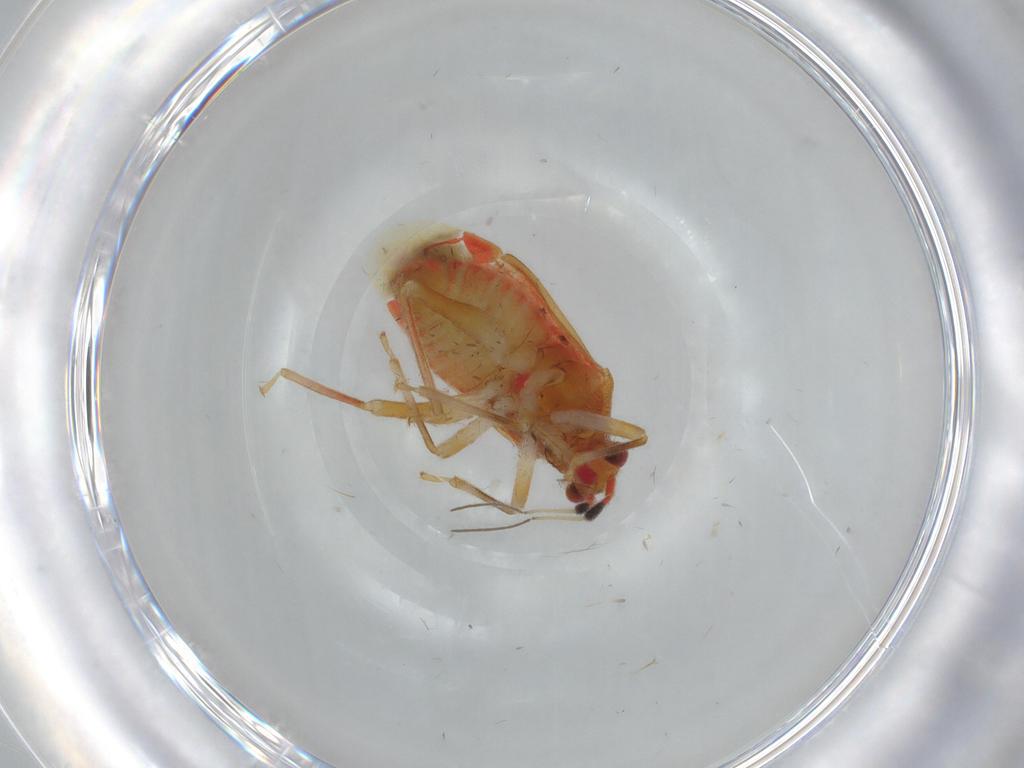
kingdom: Animalia
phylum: Arthropoda
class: Insecta
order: Hemiptera
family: Miridae
